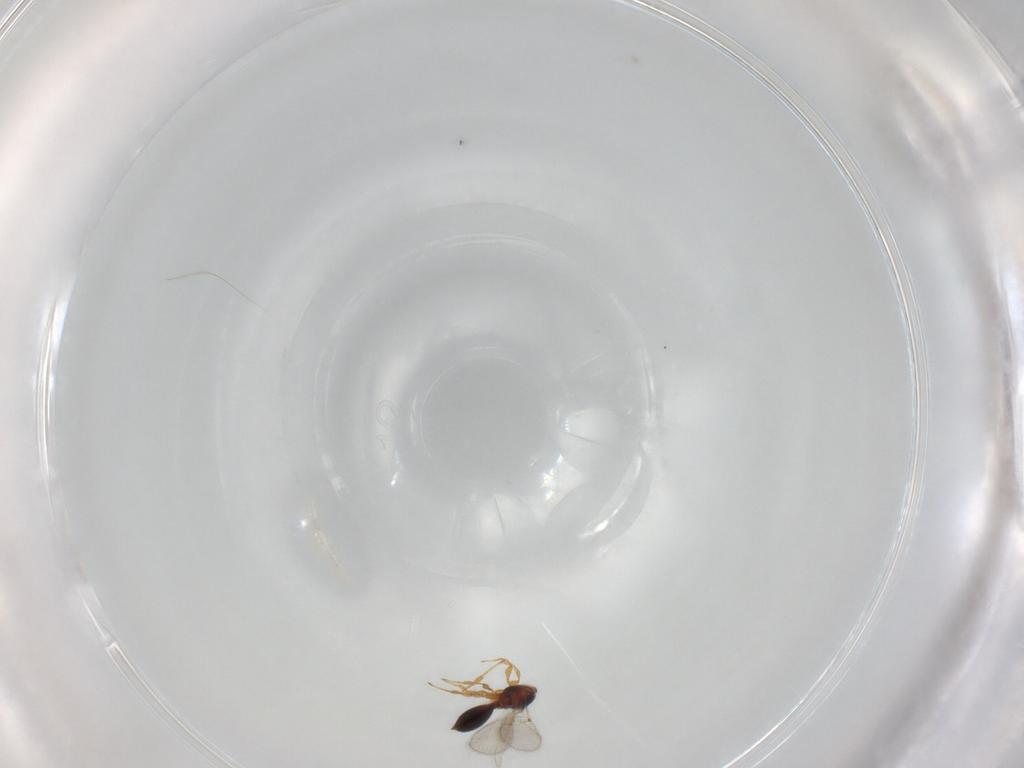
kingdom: Animalia
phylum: Arthropoda
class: Insecta
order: Hymenoptera
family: Diapriidae
